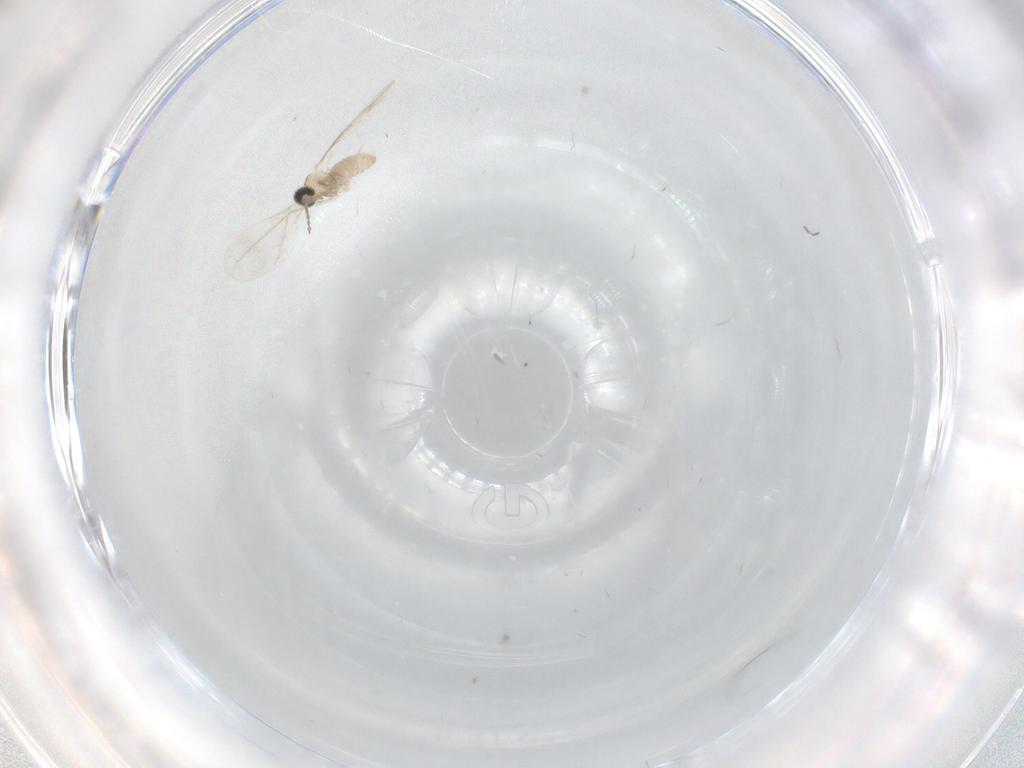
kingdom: Animalia
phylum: Arthropoda
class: Insecta
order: Diptera
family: Cecidomyiidae
